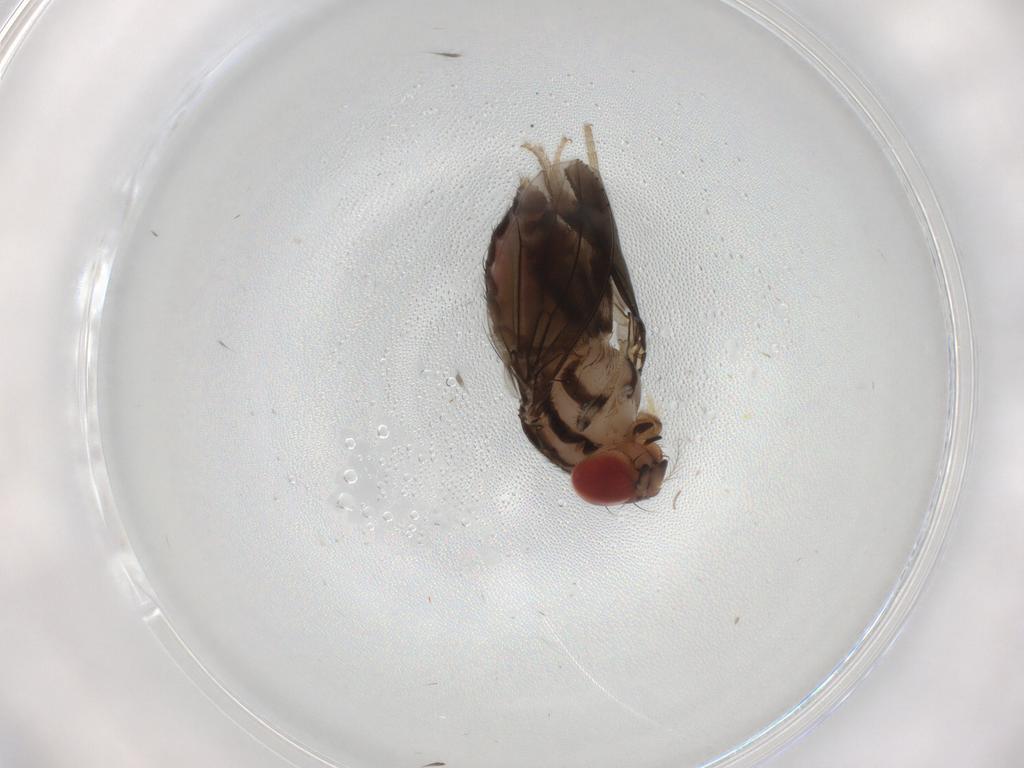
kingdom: Animalia
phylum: Arthropoda
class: Insecta
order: Diptera
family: Drosophilidae
